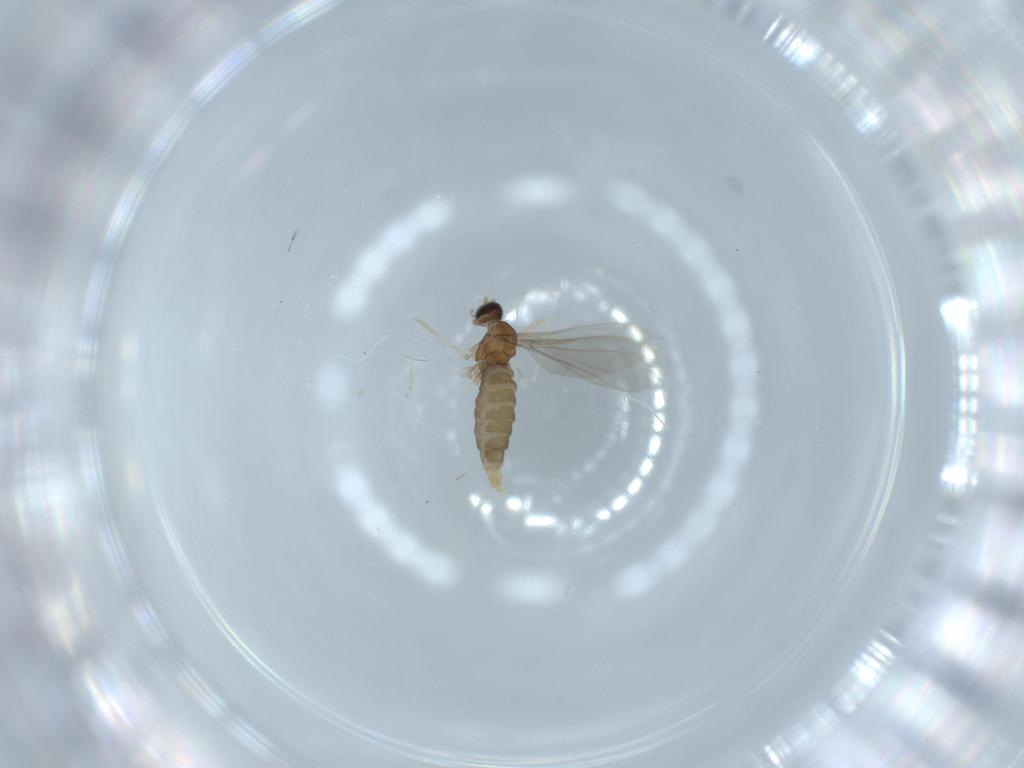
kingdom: Animalia
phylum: Arthropoda
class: Insecta
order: Diptera
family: Cecidomyiidae
